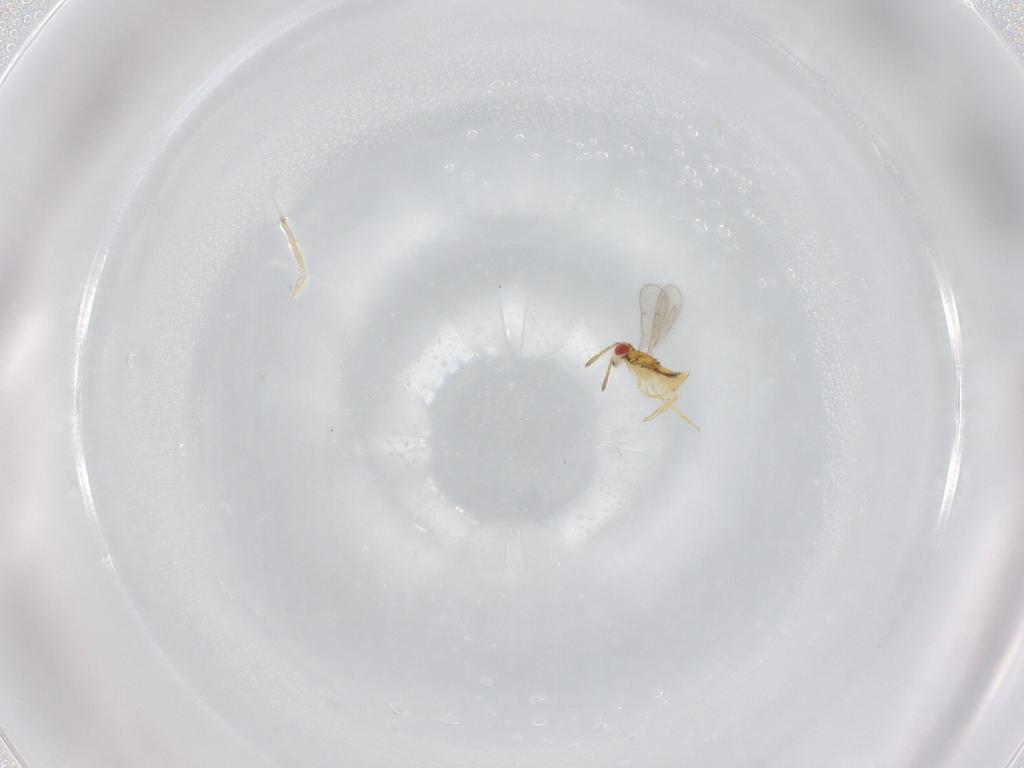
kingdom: Animalia
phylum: Arthropoda
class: Insecta
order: Hymenoptera
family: Aphelinidae
